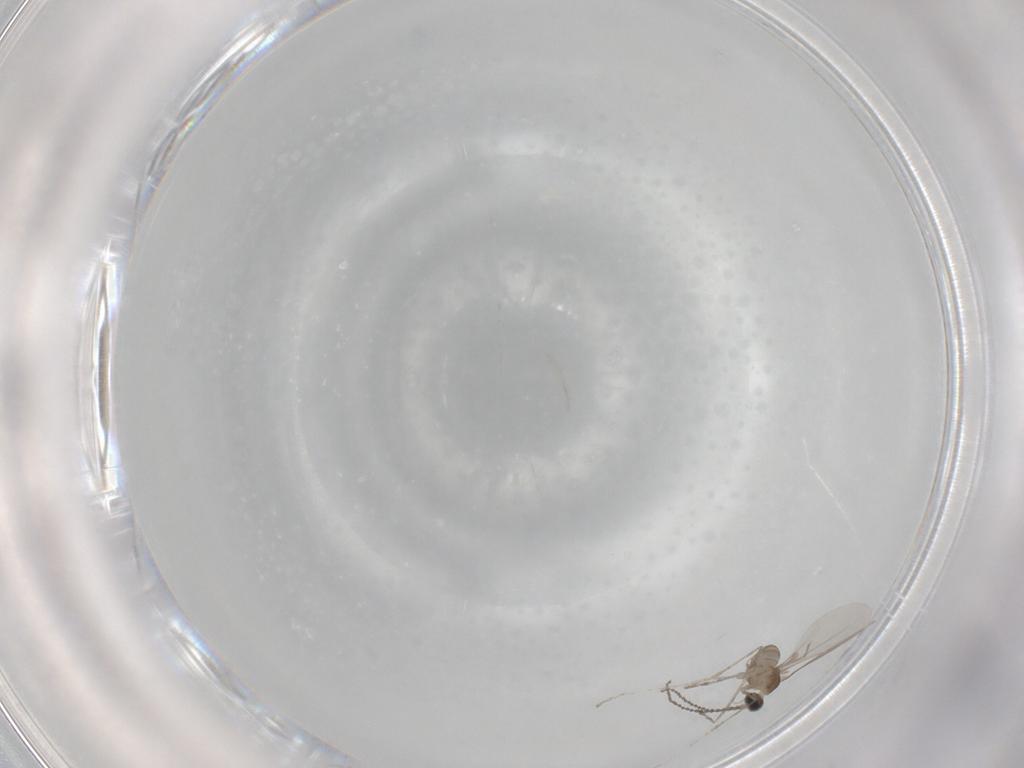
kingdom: Animalia
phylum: Arthropoda
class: Insecta
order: Diptera
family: Cecidomyiidae
